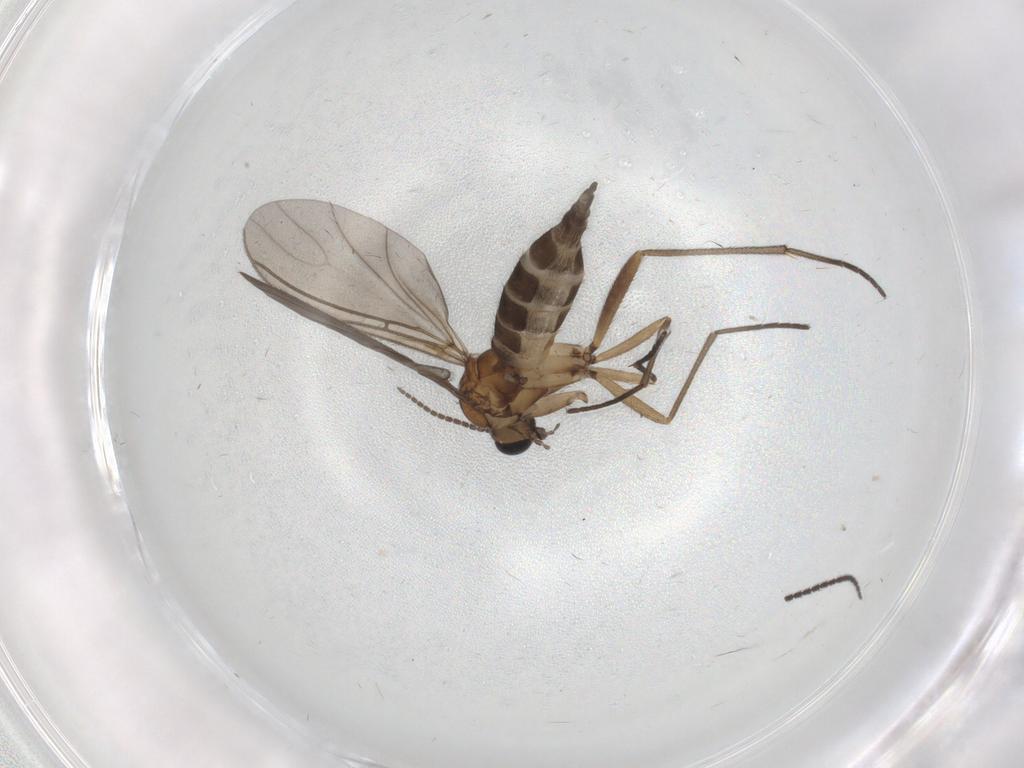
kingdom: Animalia
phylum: Arthropoda
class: Insecta
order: Diptera
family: Sciaridae
